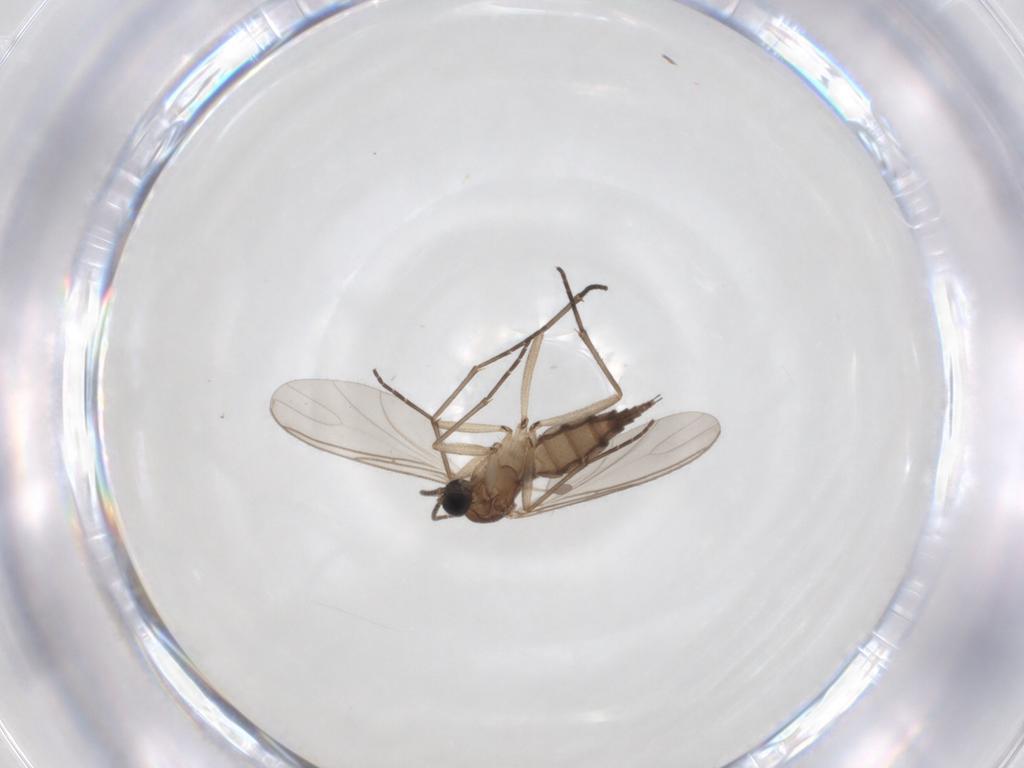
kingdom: Animalia
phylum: Arthropoda
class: Insecta
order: Diptera
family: Sciaridae
